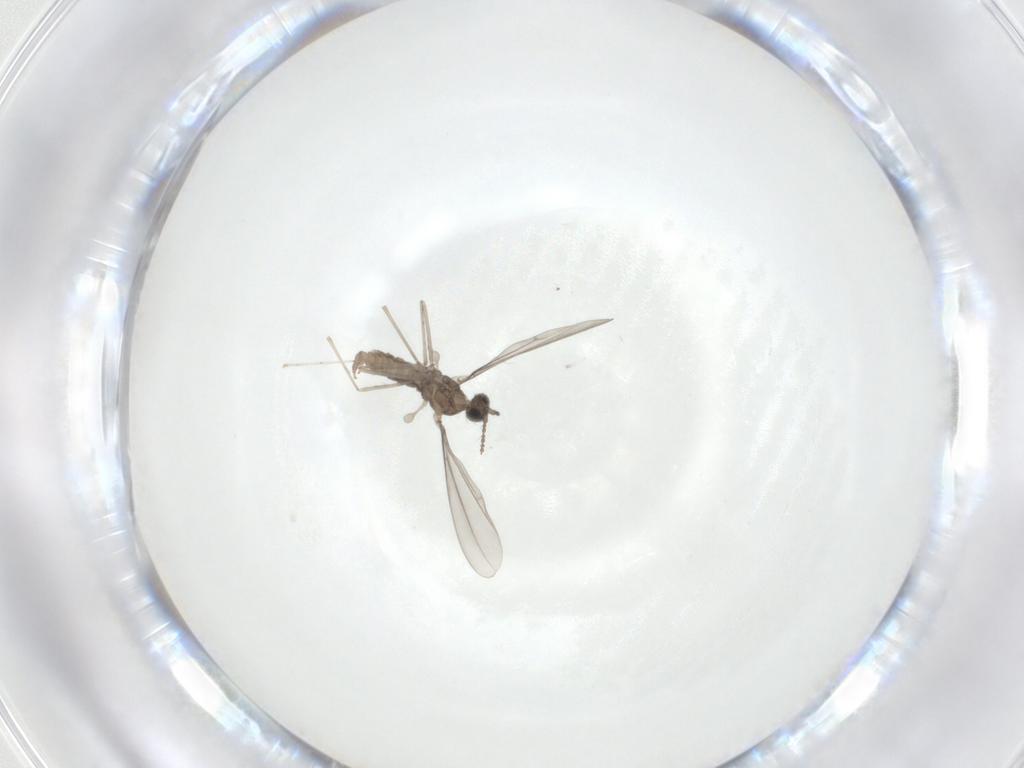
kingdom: Animalia
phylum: Arthropoda
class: Insecta
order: Diptera
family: Cecidomyiidae
